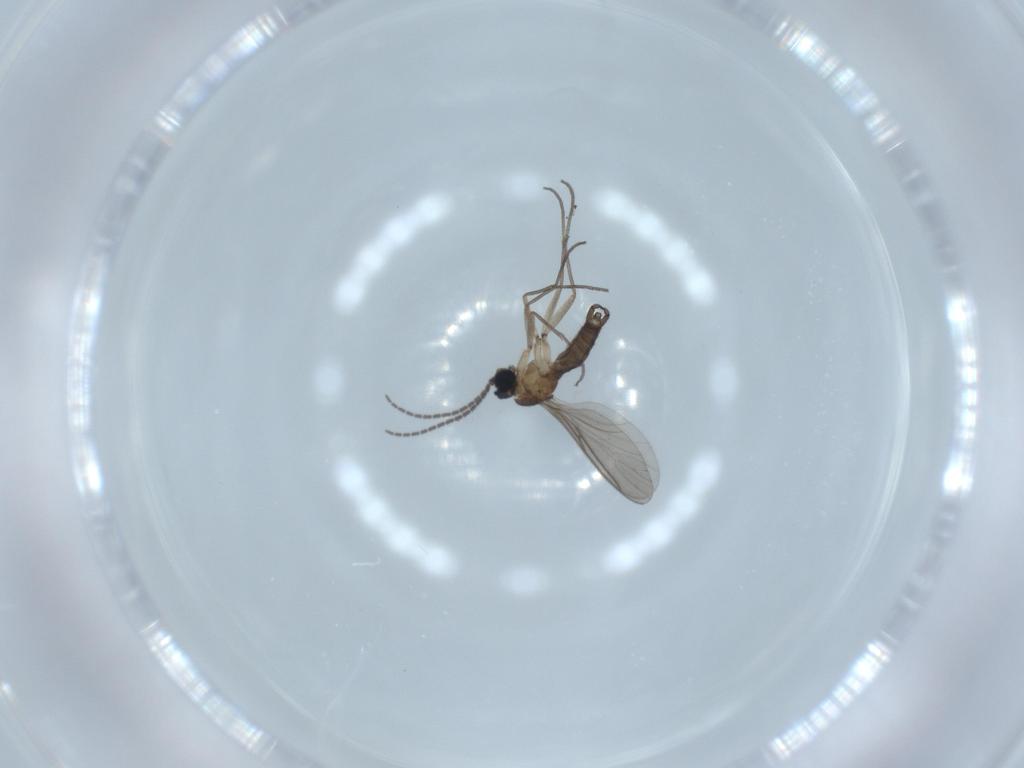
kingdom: Animalia
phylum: Arthropoda
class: Insecta
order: Diptera
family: Sciaridae
